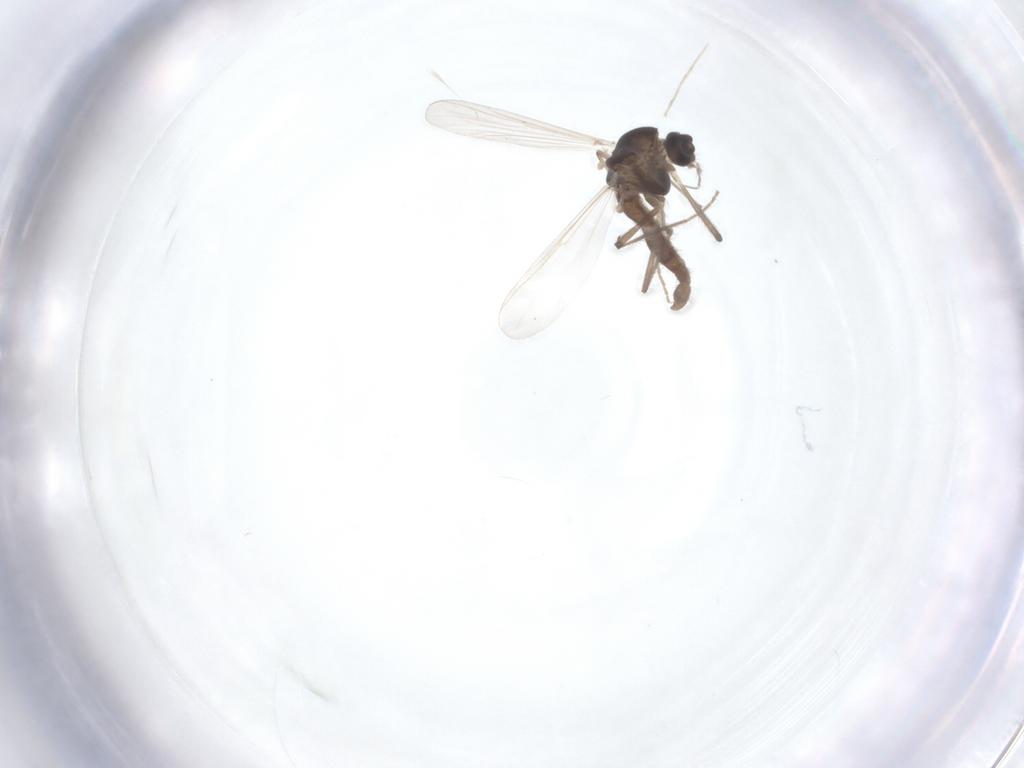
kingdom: Animalia
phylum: Arthropoda
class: Insecta
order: Diptera
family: Chironomidae
